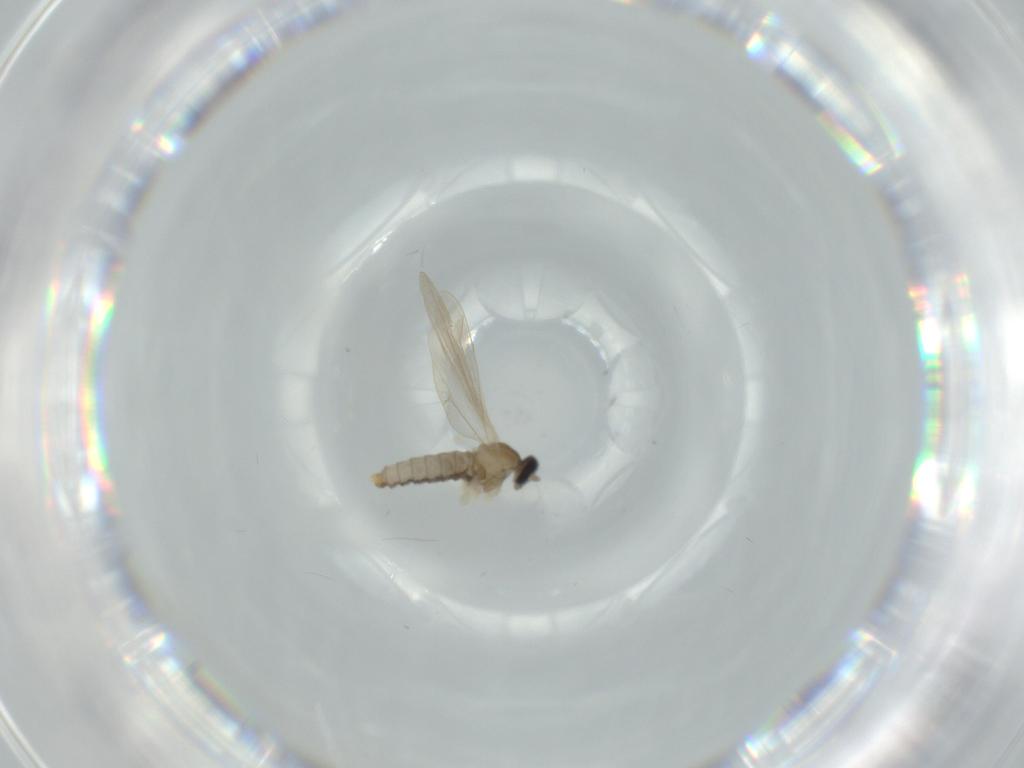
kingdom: Animalia
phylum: Arthropoda
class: Insecta
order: Diptera
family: Cecidomyiidae
